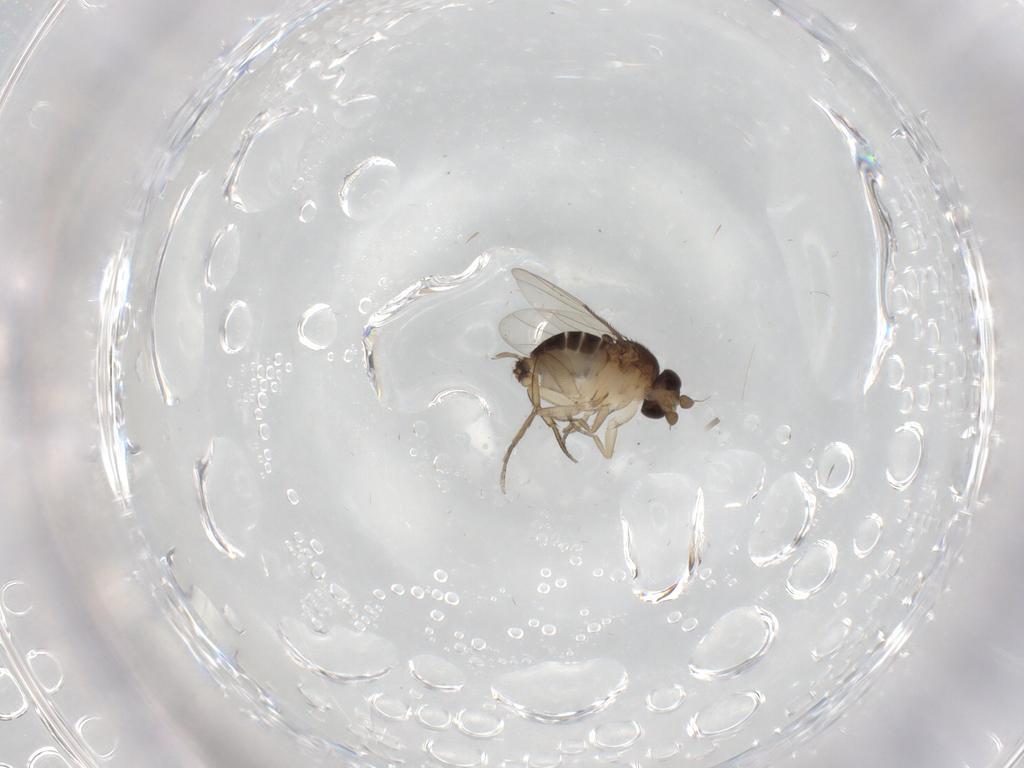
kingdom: Animalia
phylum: Arthropoda
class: Insecta
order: Diptera
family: Phoridae
